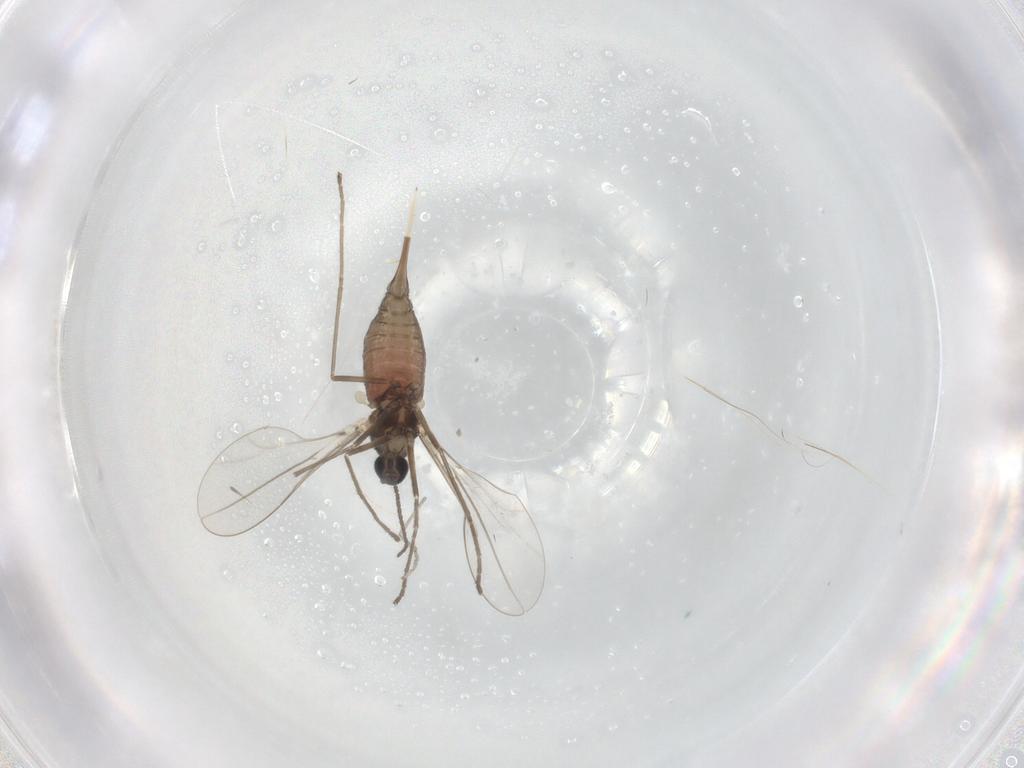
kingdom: Animalia
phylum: Arthropoda
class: Insecta
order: Diptera
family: Cecidomyiidae
